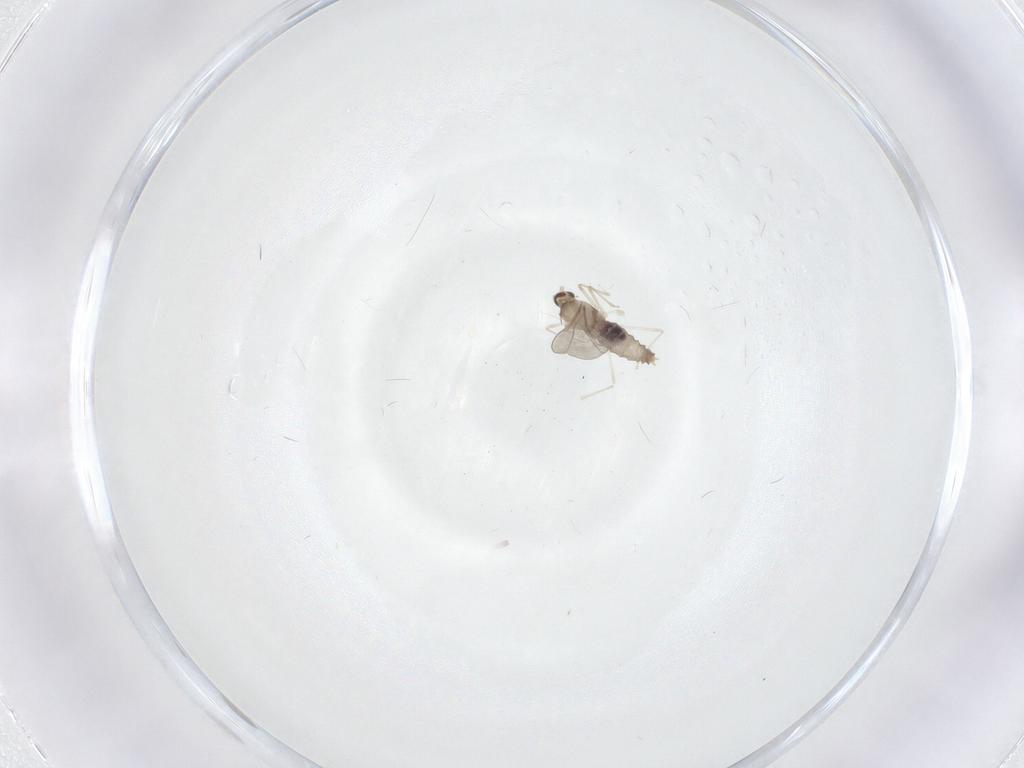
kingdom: Animalia
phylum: Arthropoda
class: Insecta
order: Diptera
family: Cecidomyiidae
